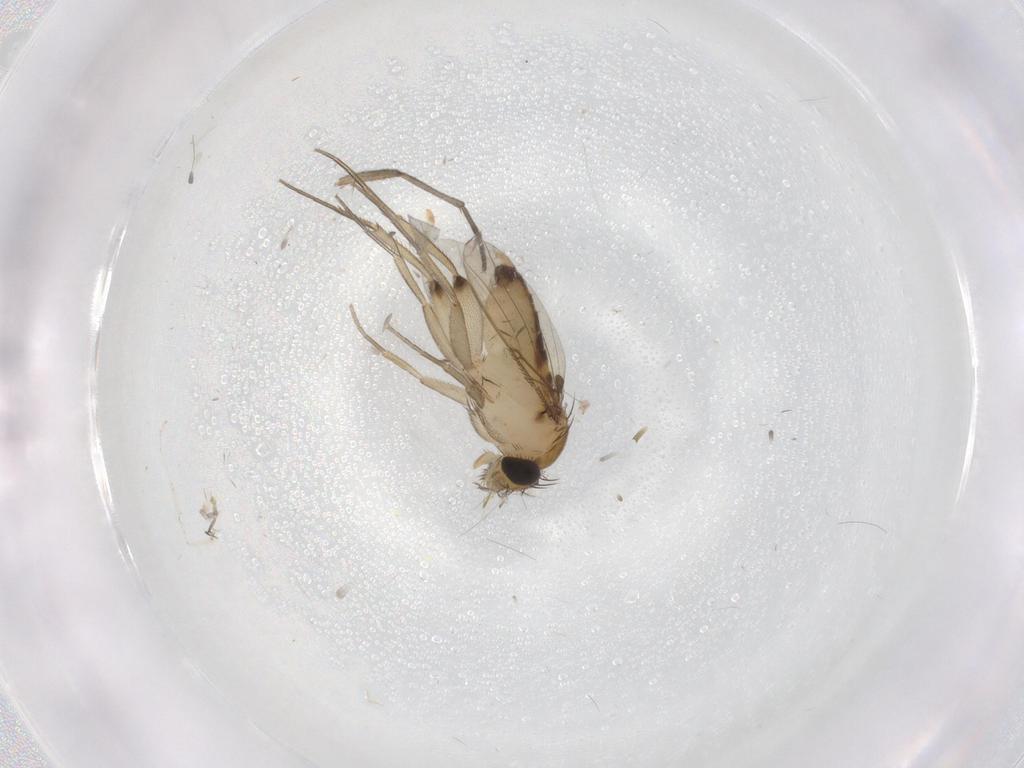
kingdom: Animalia
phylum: Arthropoda
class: Insecta
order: Diptera
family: Phoridae
